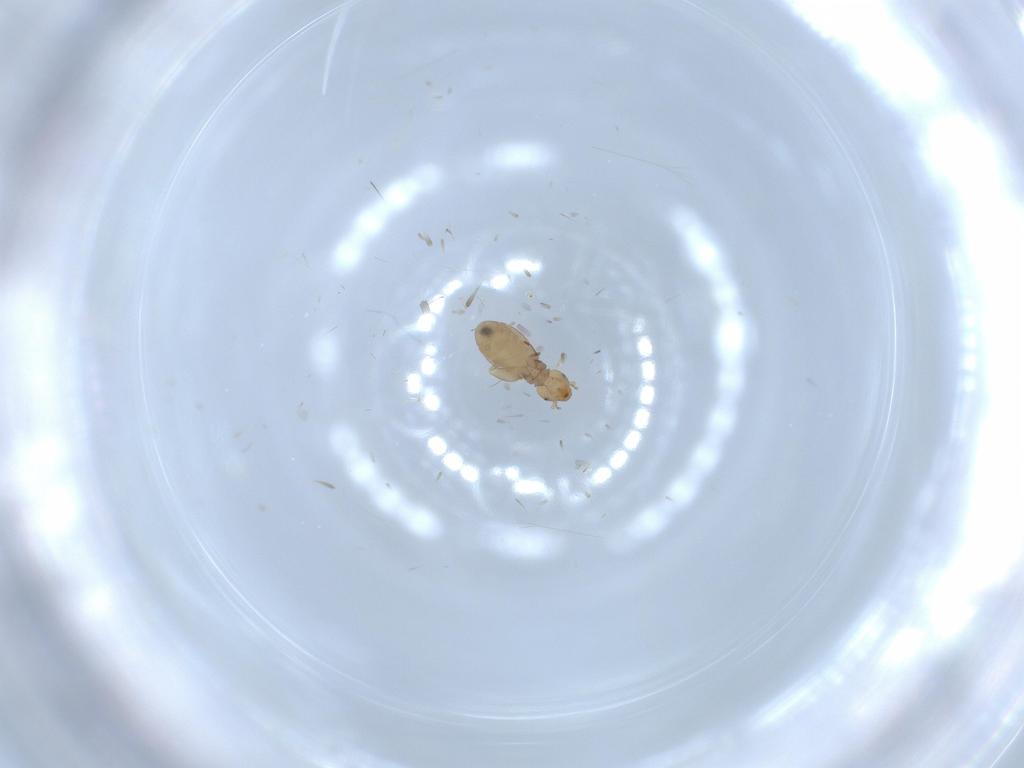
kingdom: Animalia
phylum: Arthropoda
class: Insecta
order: Psocodea
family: Liposcelididae
